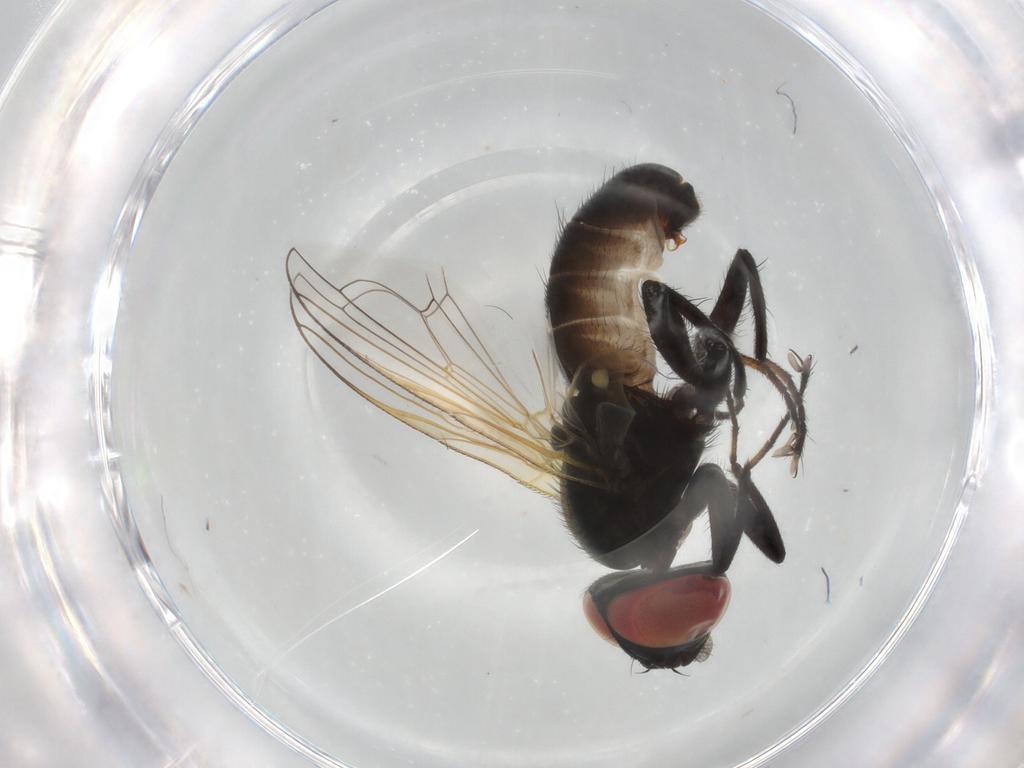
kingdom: Animalia
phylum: Arthropoda
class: Insecta
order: Diptera
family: Tachinidae
